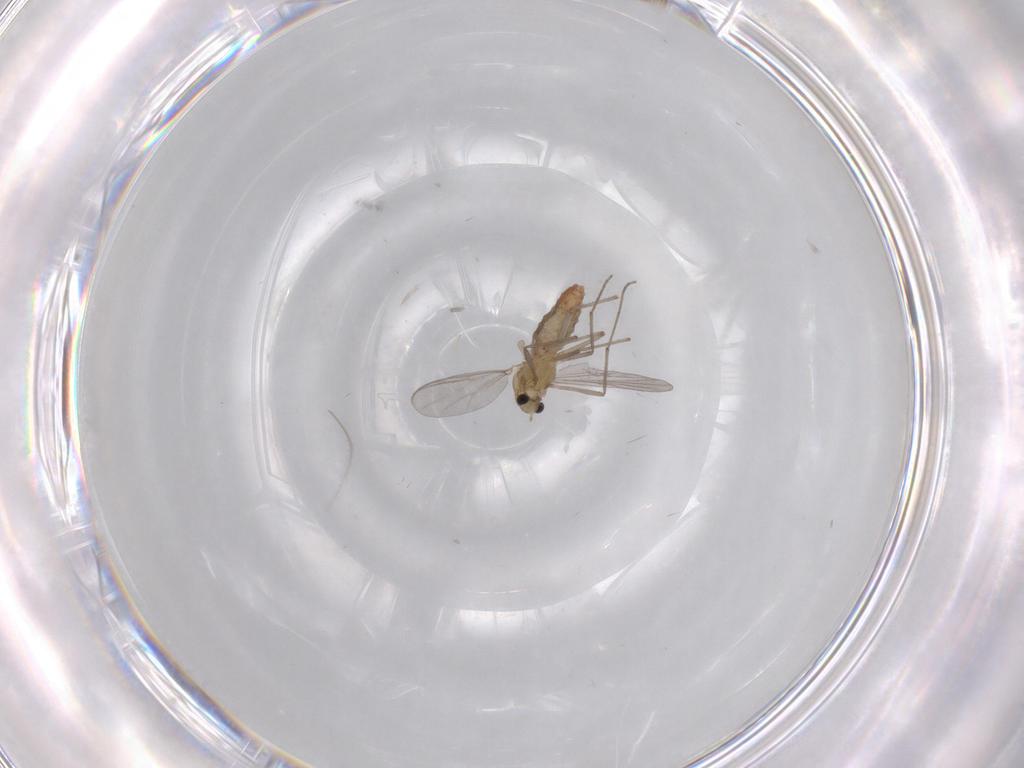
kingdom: Animalia
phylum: Arthropoda
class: Insecta
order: Diptera
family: Chironomidae
